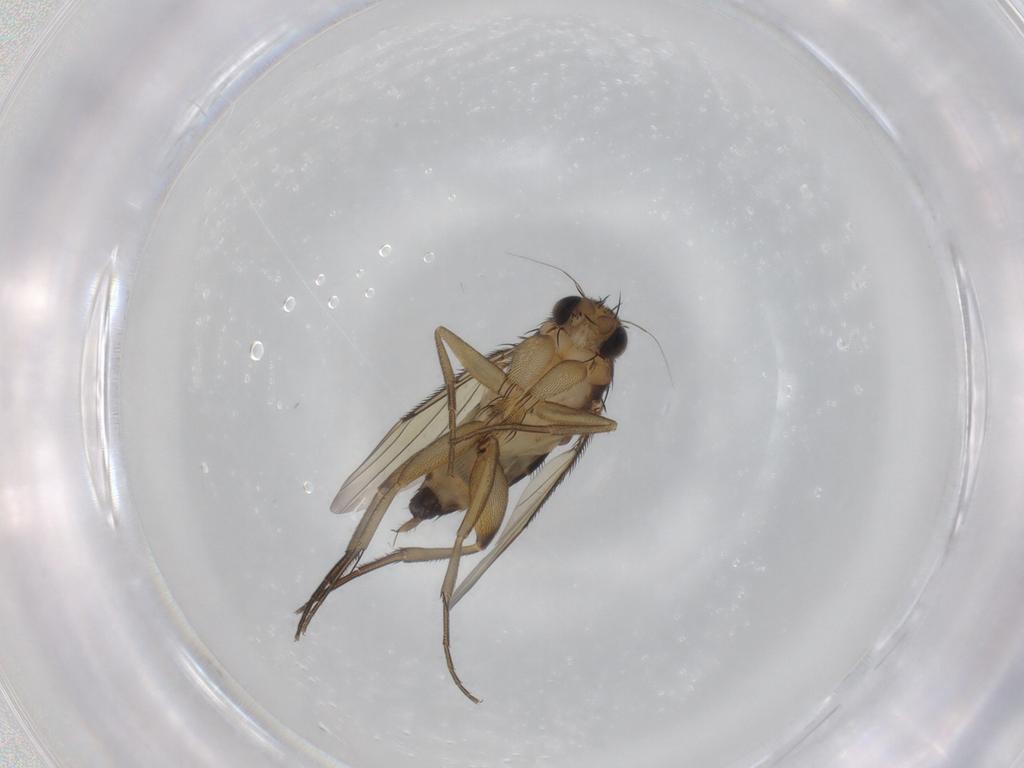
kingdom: Animalia
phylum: Arthropoda
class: Insecta
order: Diptera
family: Phoridae
